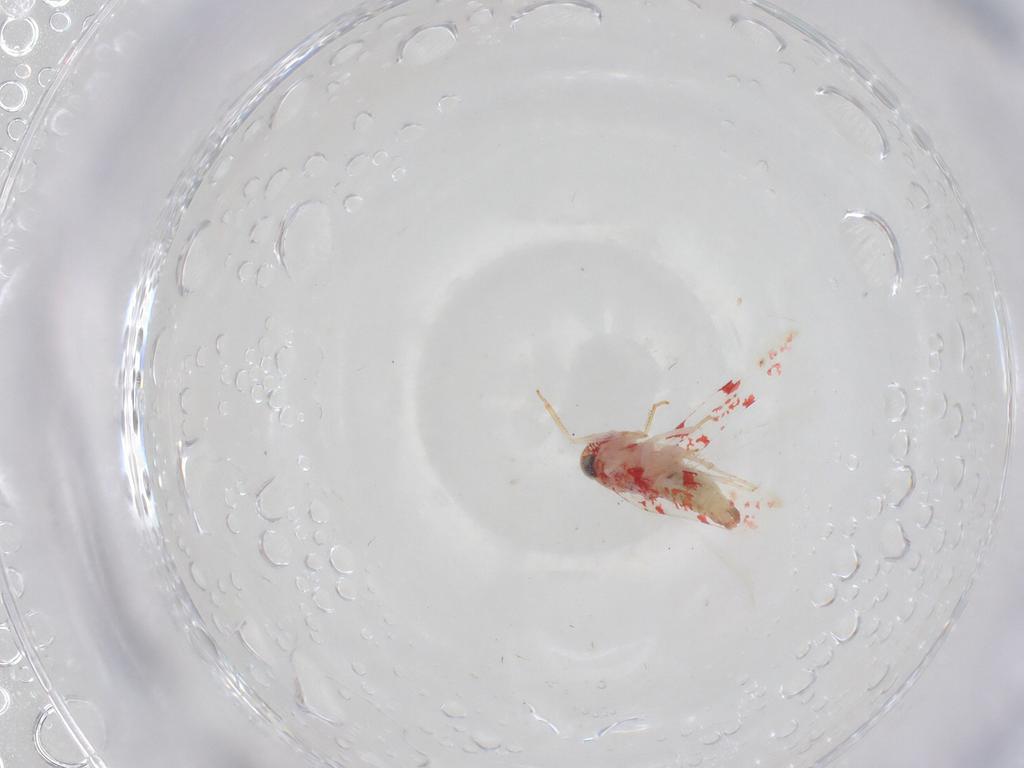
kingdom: Animalia
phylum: Arthropoda
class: Insecta
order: Hemiptera
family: Cicadellidae
